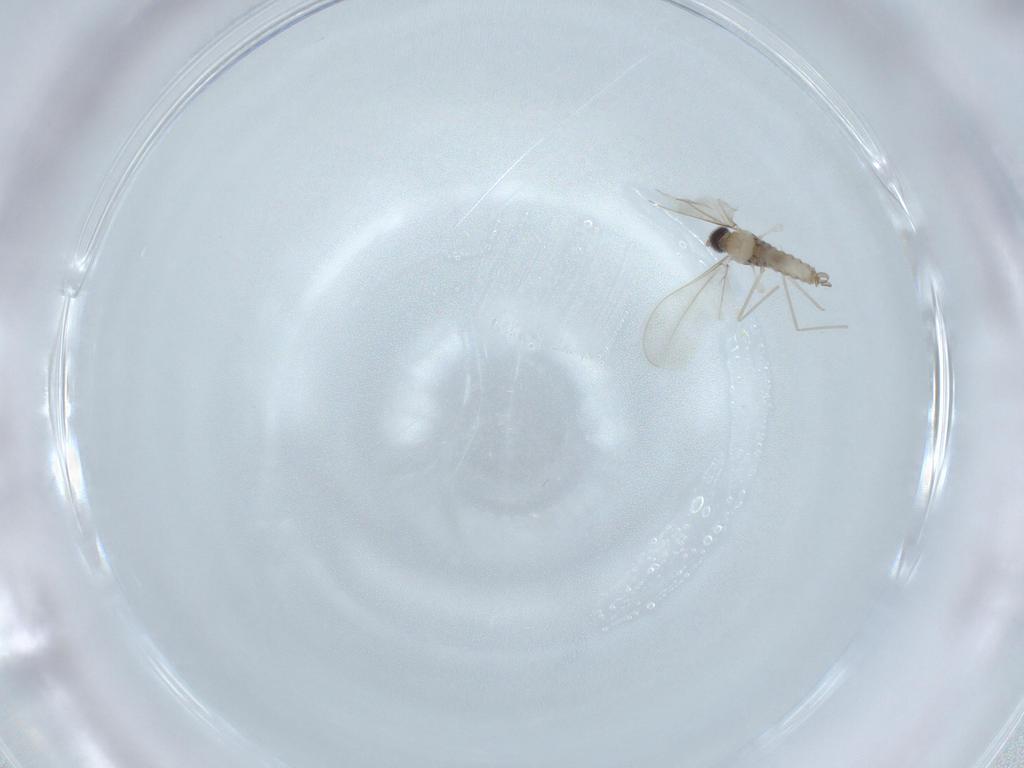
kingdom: Animalia
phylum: Arthropoda
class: Insecta
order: Diptera
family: Cecidomyiidae
